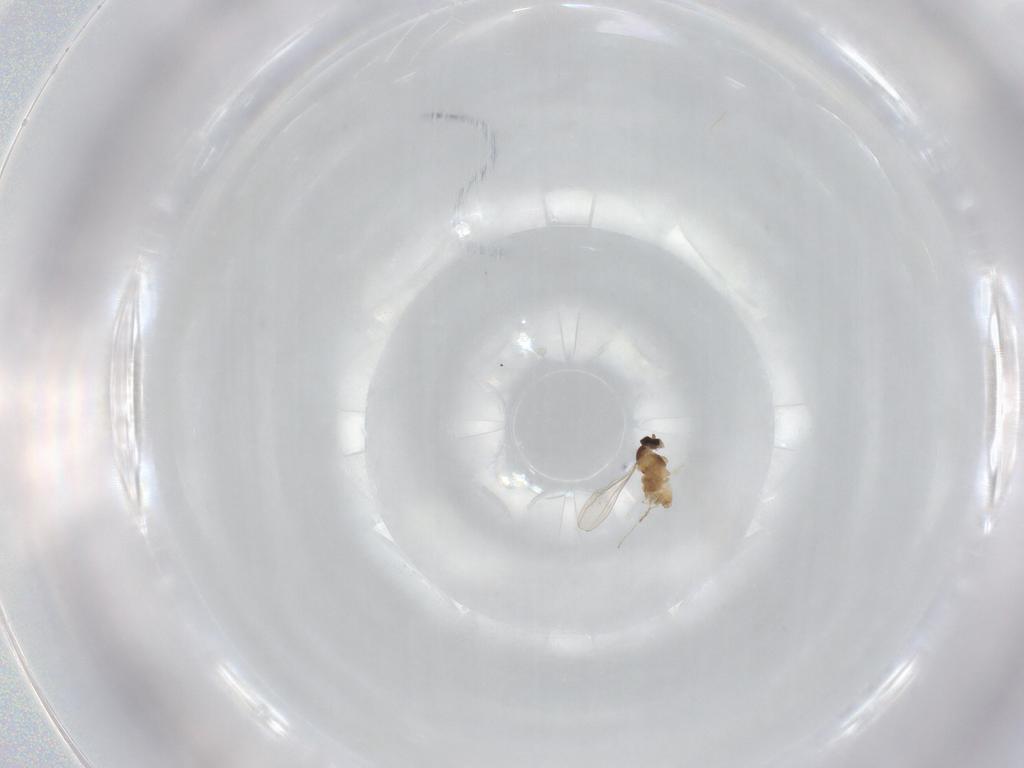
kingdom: Animalia
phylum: Arthropoda
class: Insecta
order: Diptera
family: Cecidomyiidae
